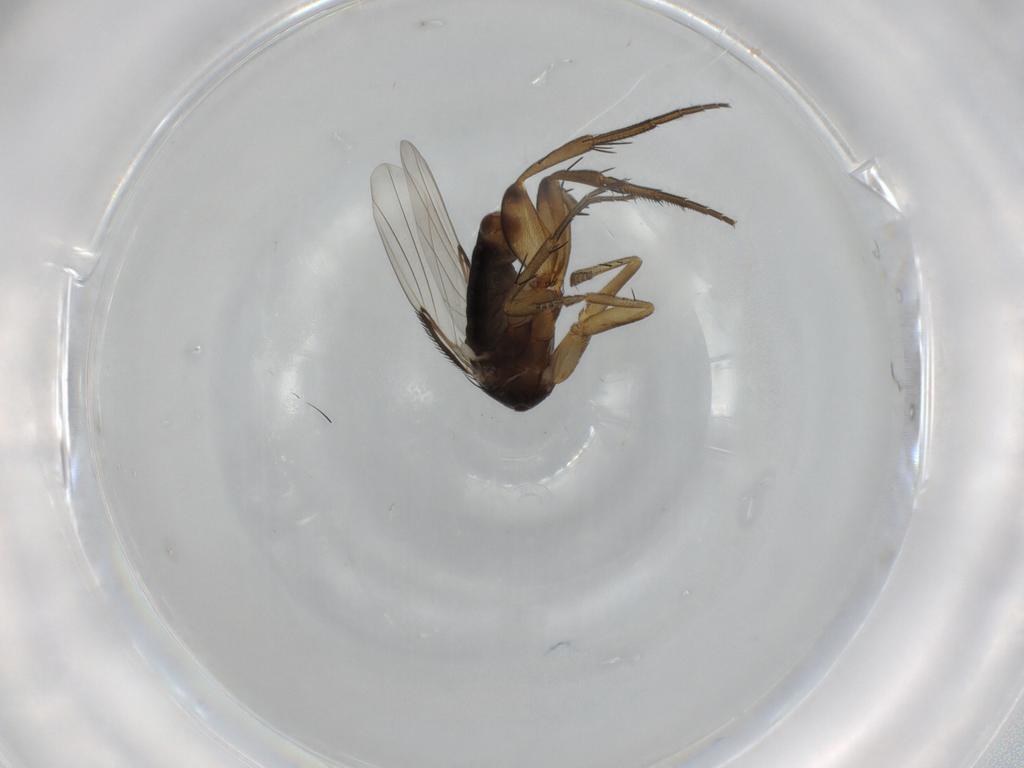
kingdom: Animalia
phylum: Arthropoda
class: Insecta
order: Diptera
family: Phoridae
